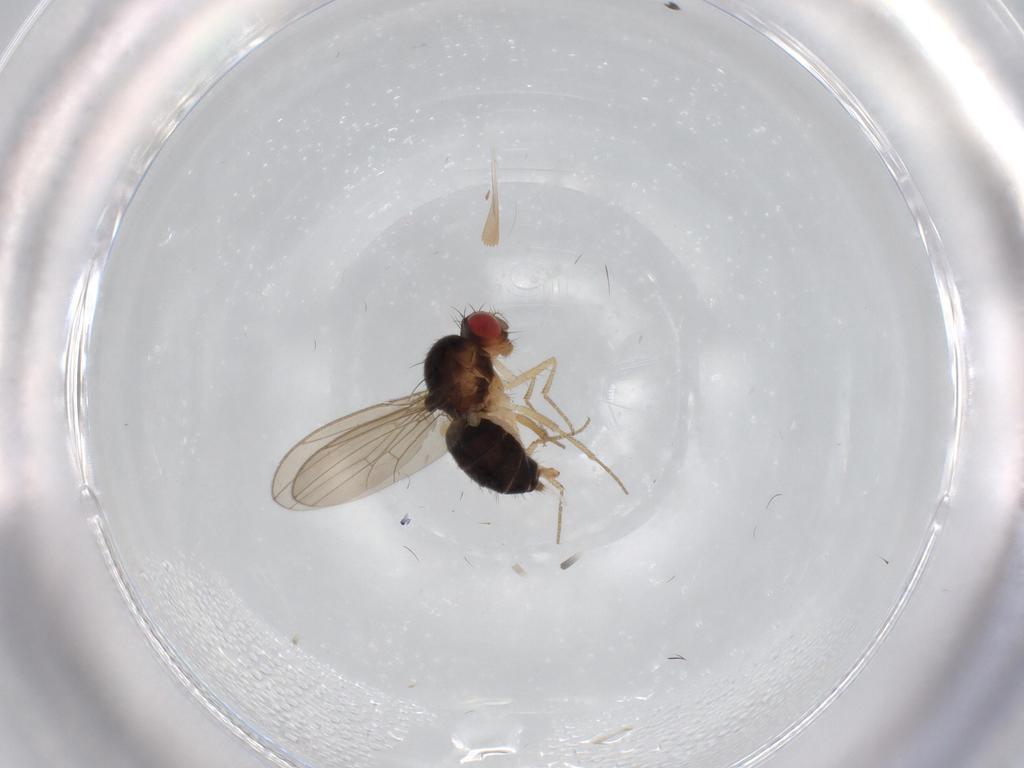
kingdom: Animalia
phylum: Arthropoda
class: Insecta
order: Diptera
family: Drosophilidae
